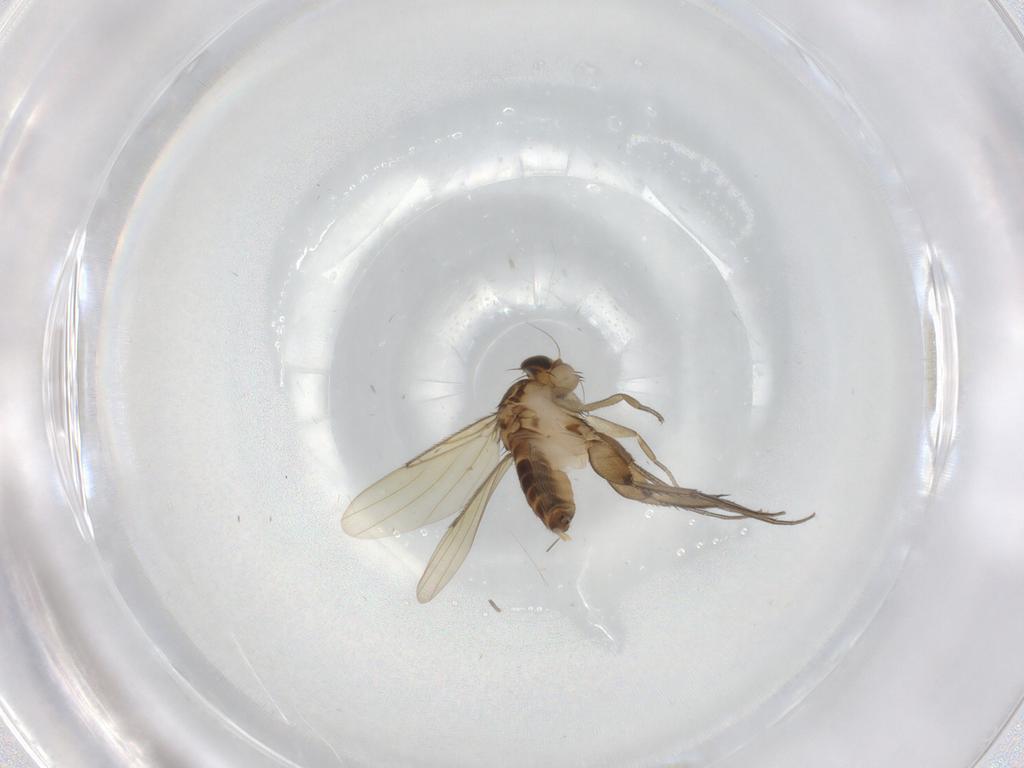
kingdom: Animalia
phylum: Arthropoda
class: Insecta
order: Diptera
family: Phoridae
